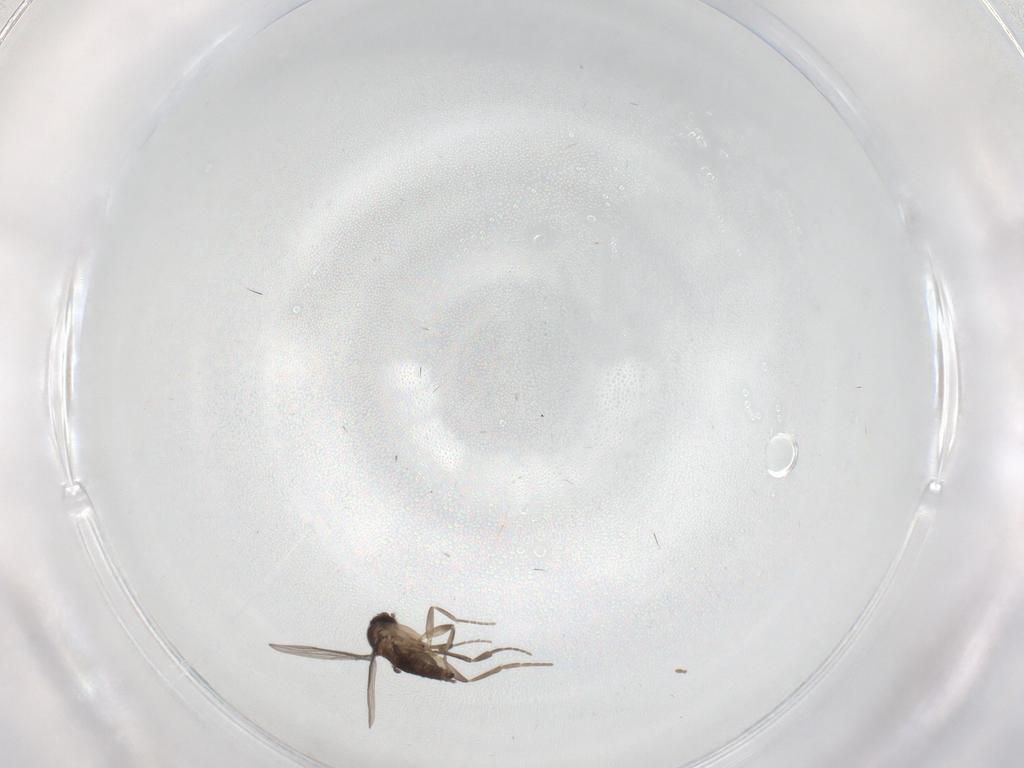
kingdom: Animalia
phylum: Arthropoda
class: Insecta
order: Diptera
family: Phoridae
